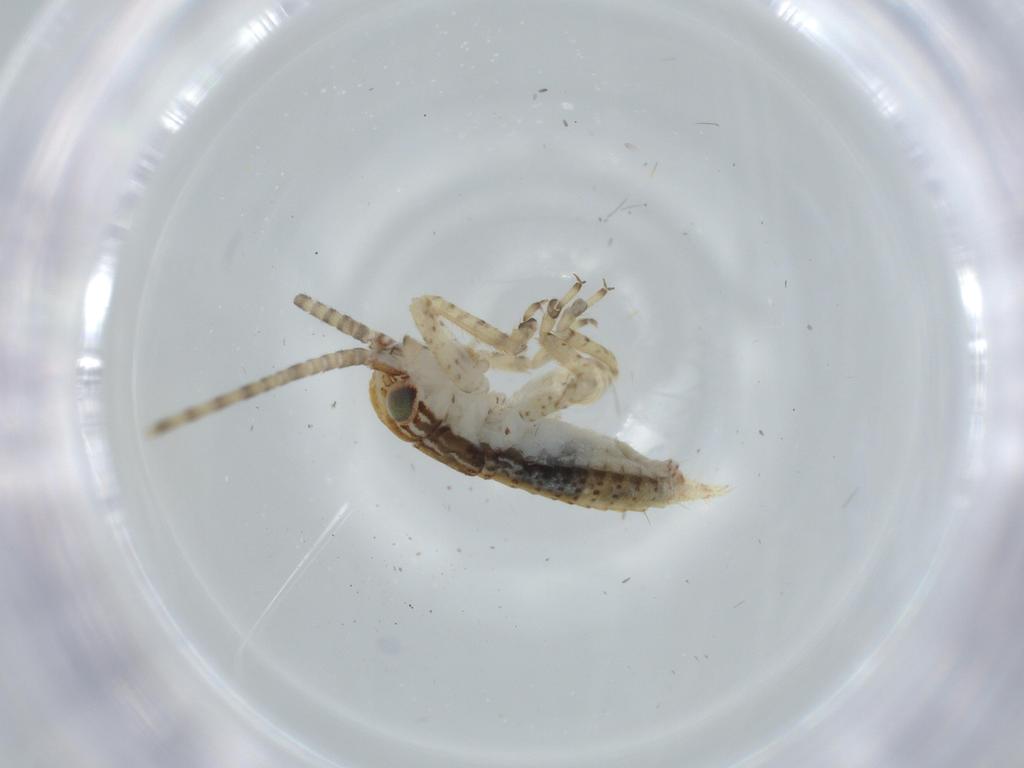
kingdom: Animalia
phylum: Arthropoda
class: Insecta
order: Orthoptera
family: Gryllidae
